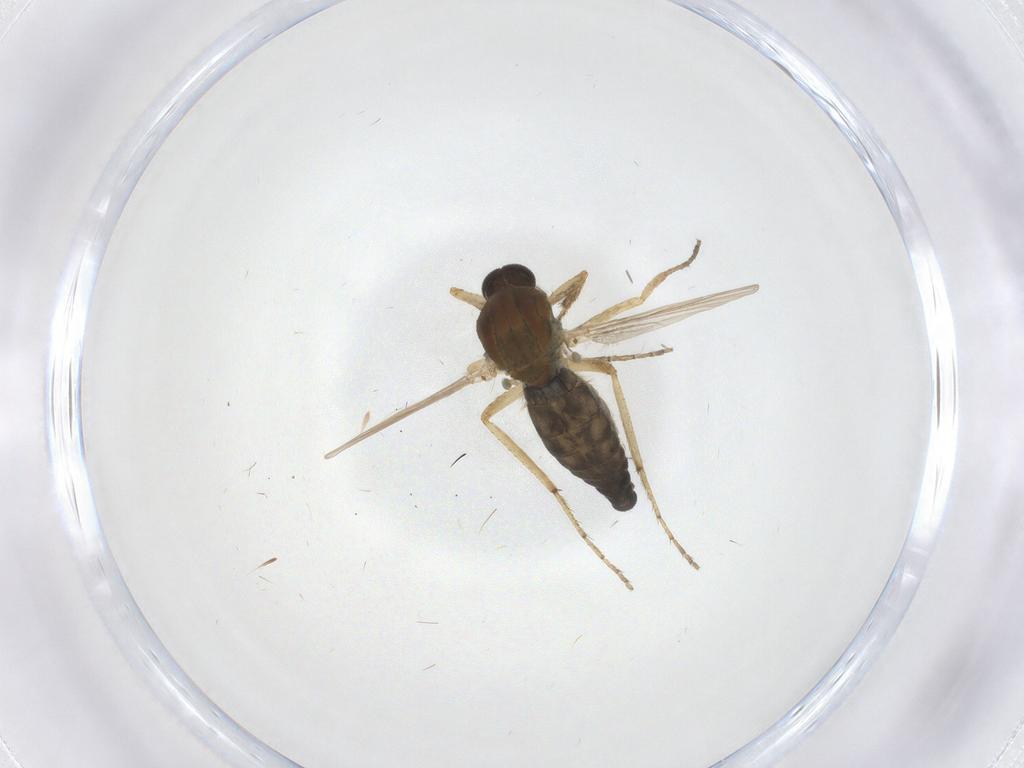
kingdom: Animalia
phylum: Arthropoda
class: Insecta
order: Diptera
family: Ceratopogonidae
